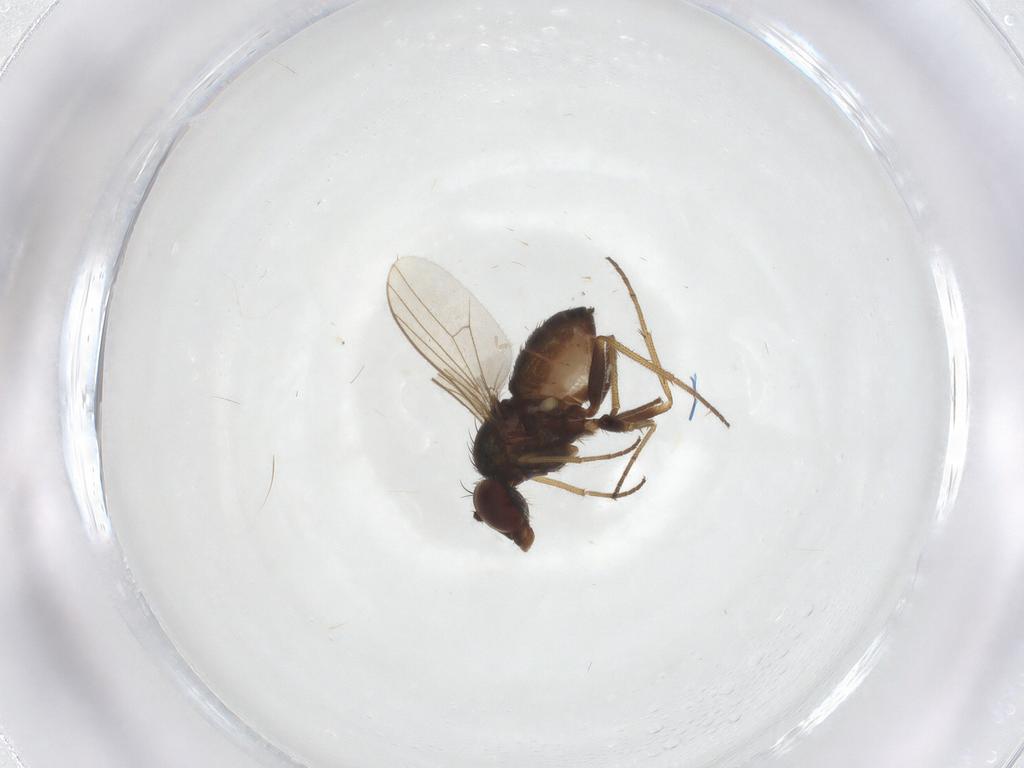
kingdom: Animalia
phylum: Arthropoda
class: Insecta
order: Diptera
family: Dolichopodidae
